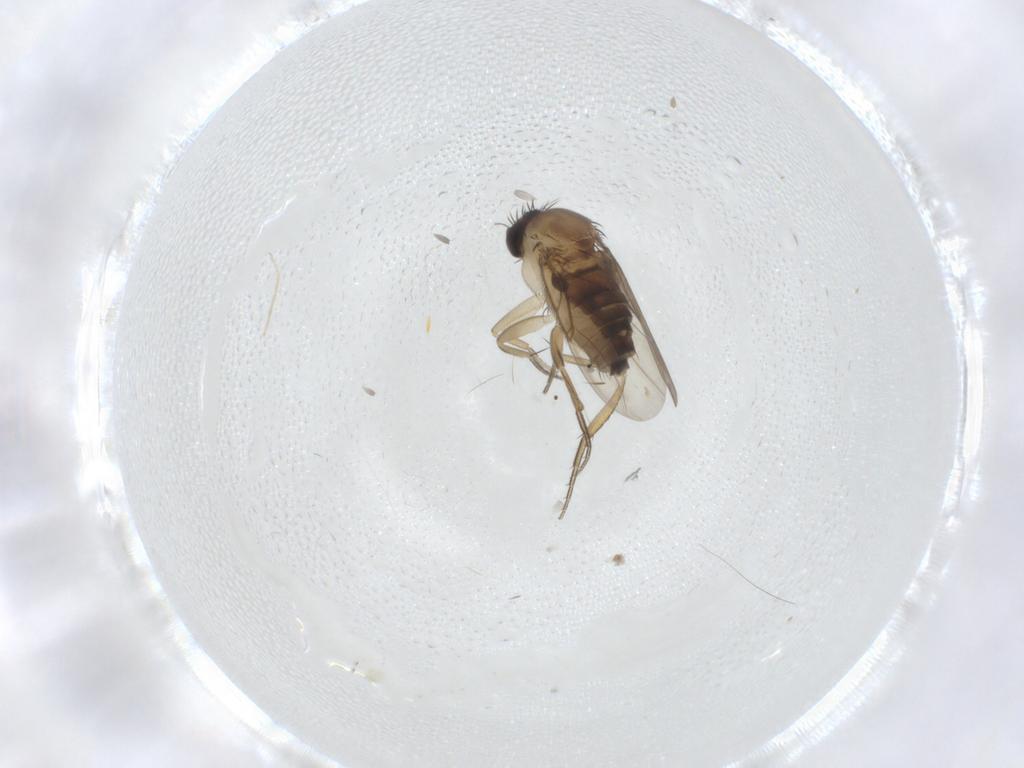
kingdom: Animalia
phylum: Arthropoda
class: Insecta
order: Diptera
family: Phoridae
